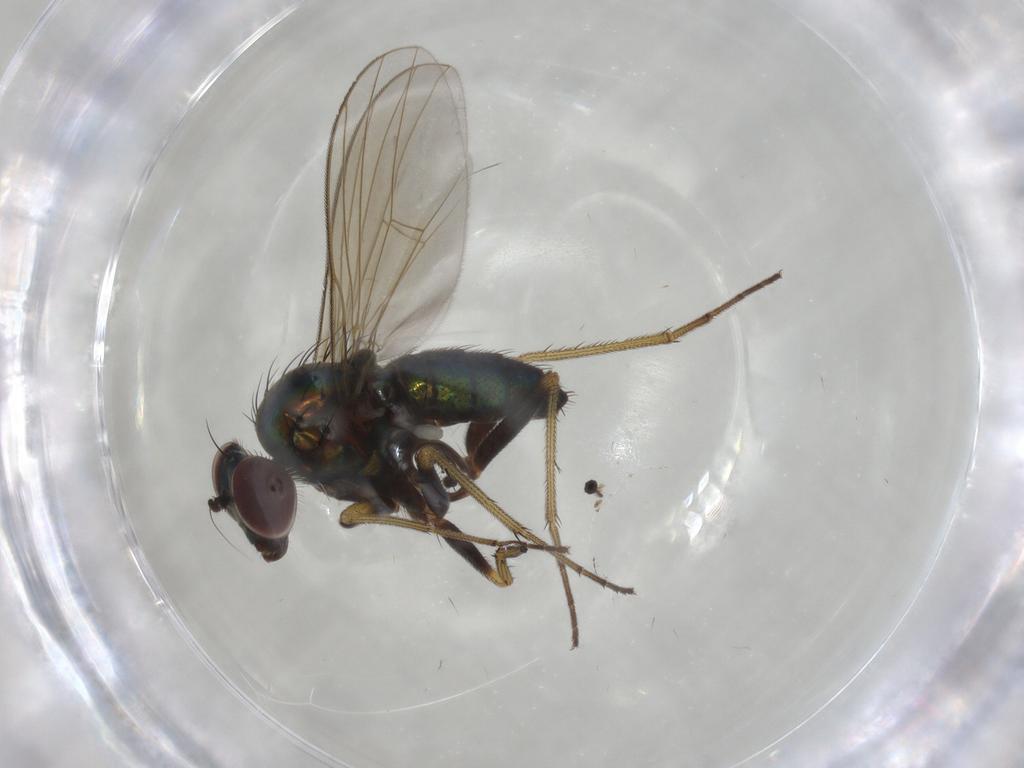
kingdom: Animalia
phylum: Arthropoda
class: Insecta
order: Diptera
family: Dolichopodidae
